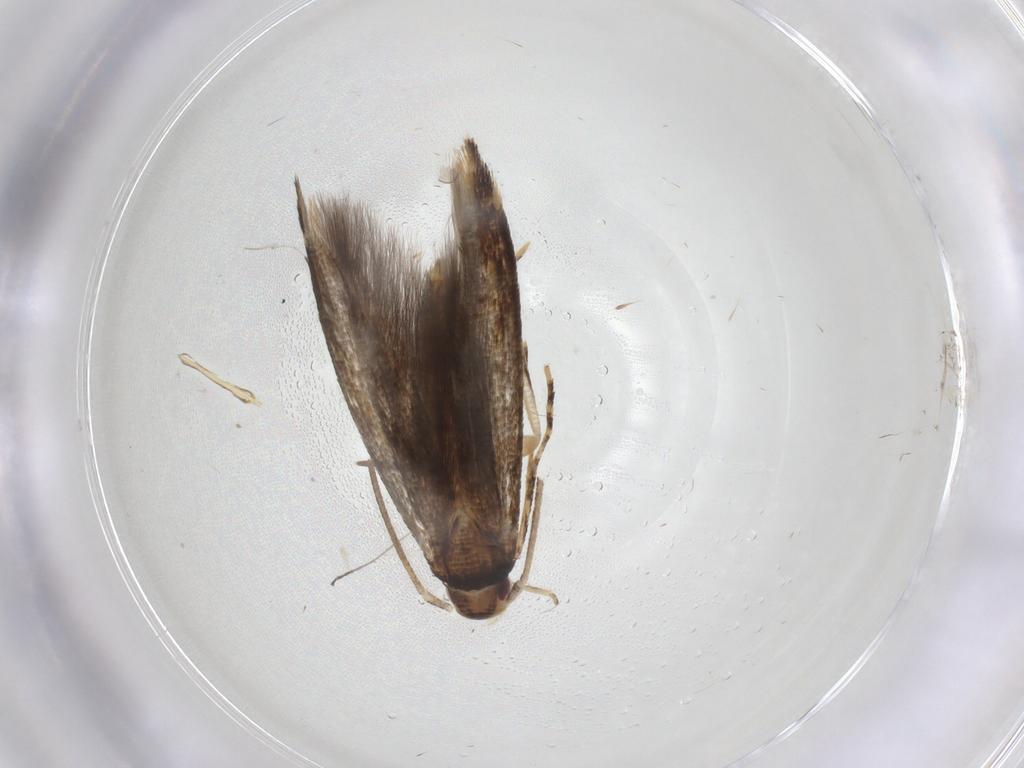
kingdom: Animalia
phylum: Arthropoda
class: Insecta
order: Lepidoptera
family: Momphidae
